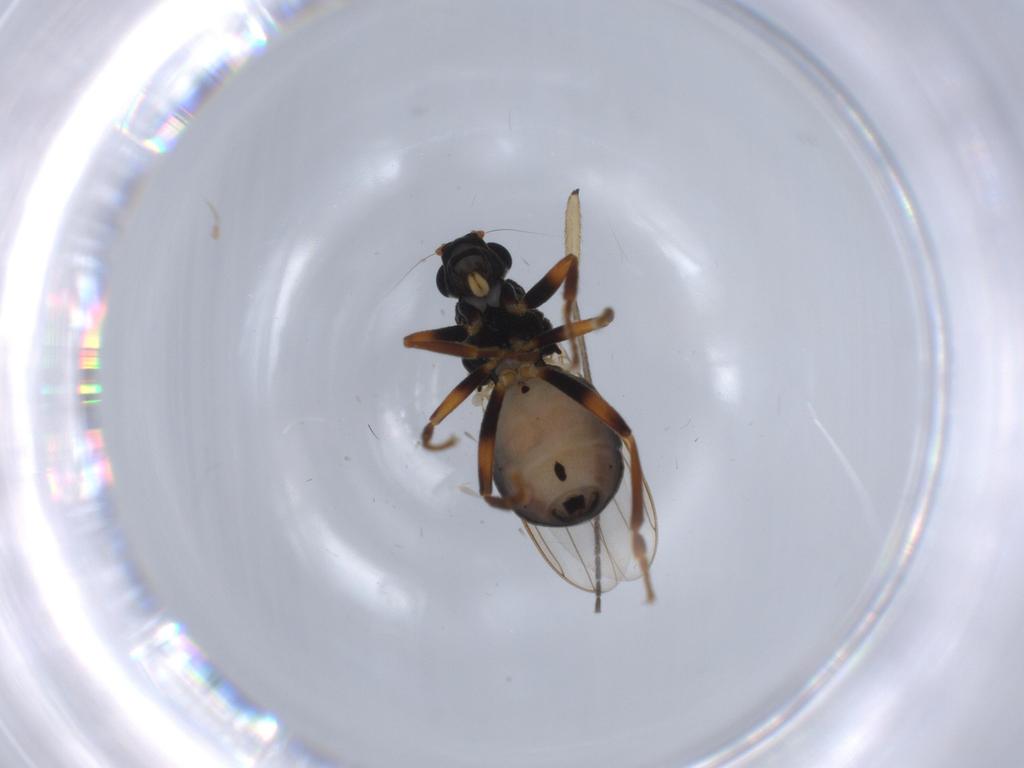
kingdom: Animalia
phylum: Arthropoda
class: Insecta
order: Diptera
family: Sphaeroceridae
